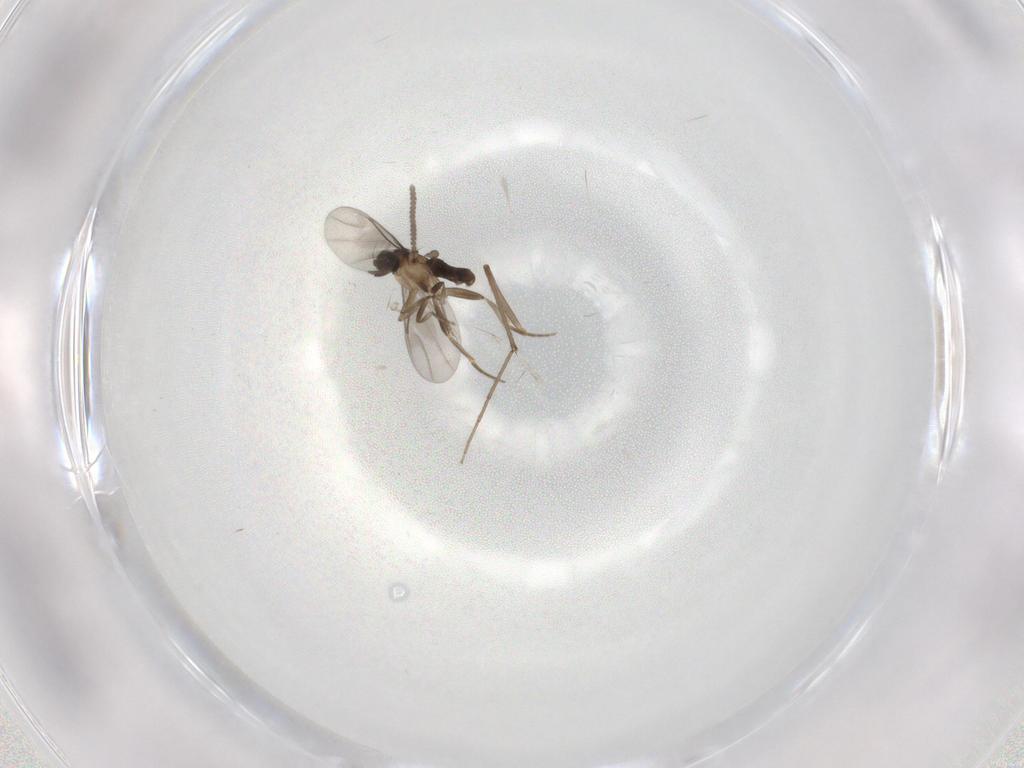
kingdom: Animalia
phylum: Arthropoda
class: Insecta
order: Diptera
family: Chironomidae
